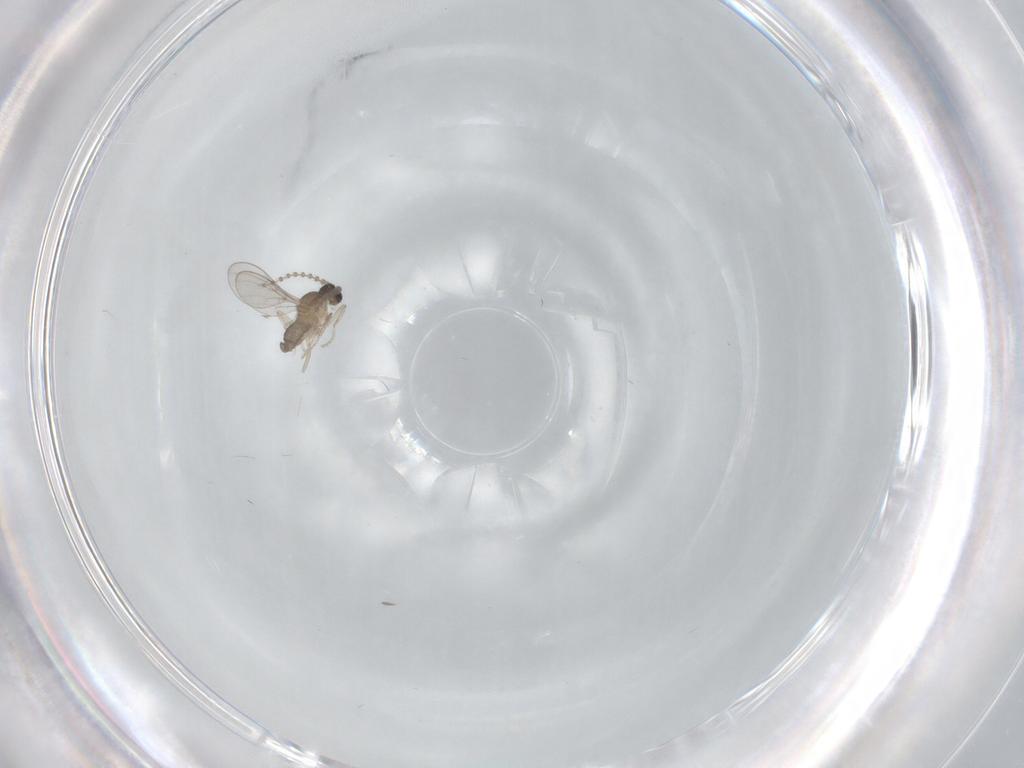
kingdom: Animalia
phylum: Arthropoda
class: Insecta
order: Diptera
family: Cecidomyiidae
